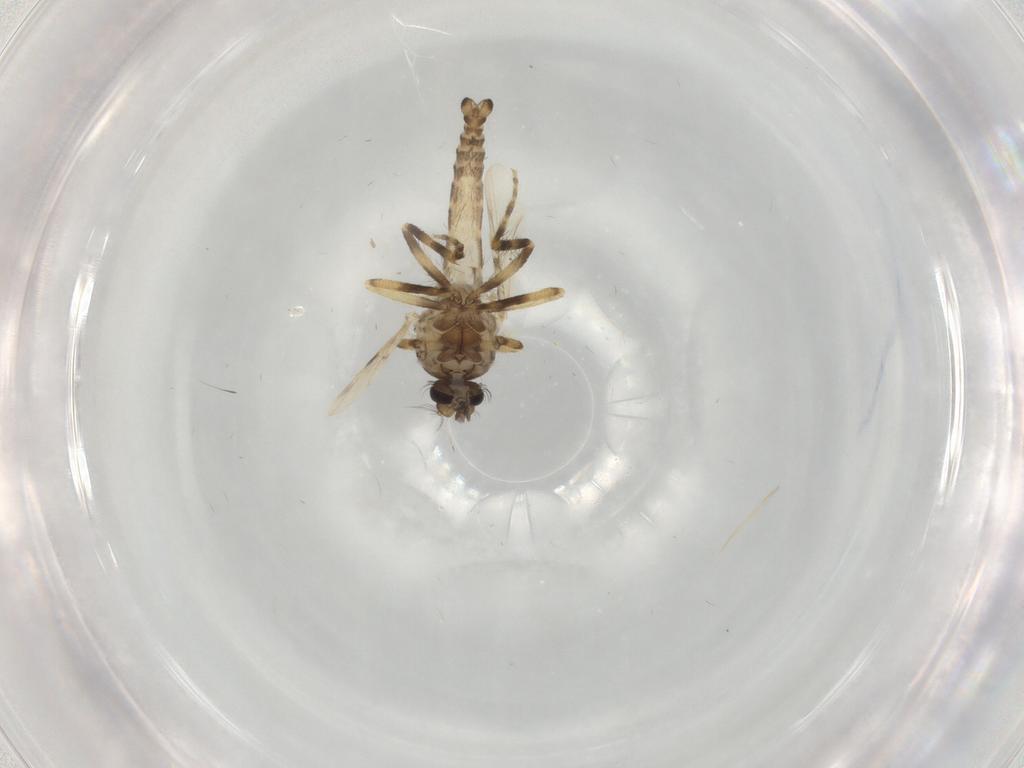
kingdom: Animalia
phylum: Arthropoda
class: Insecta
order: Diptera
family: Ceratopogonidae
